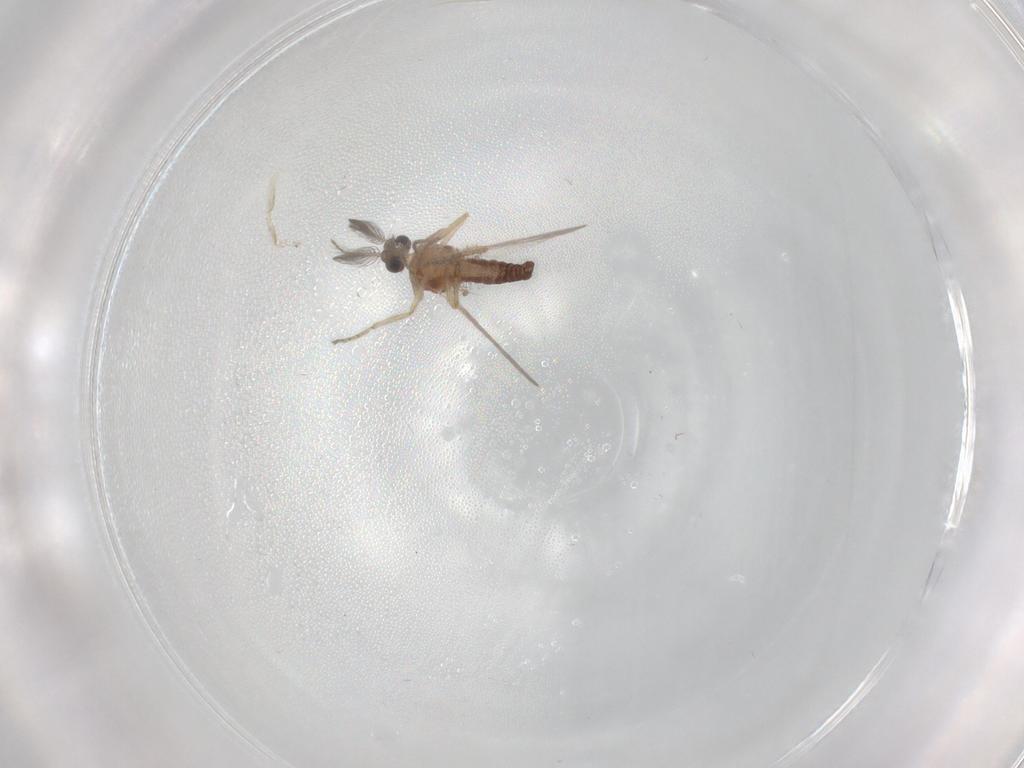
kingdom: Animalia
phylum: Arthropoda
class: Insecta
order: Diptera
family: Ceratopogonidae
